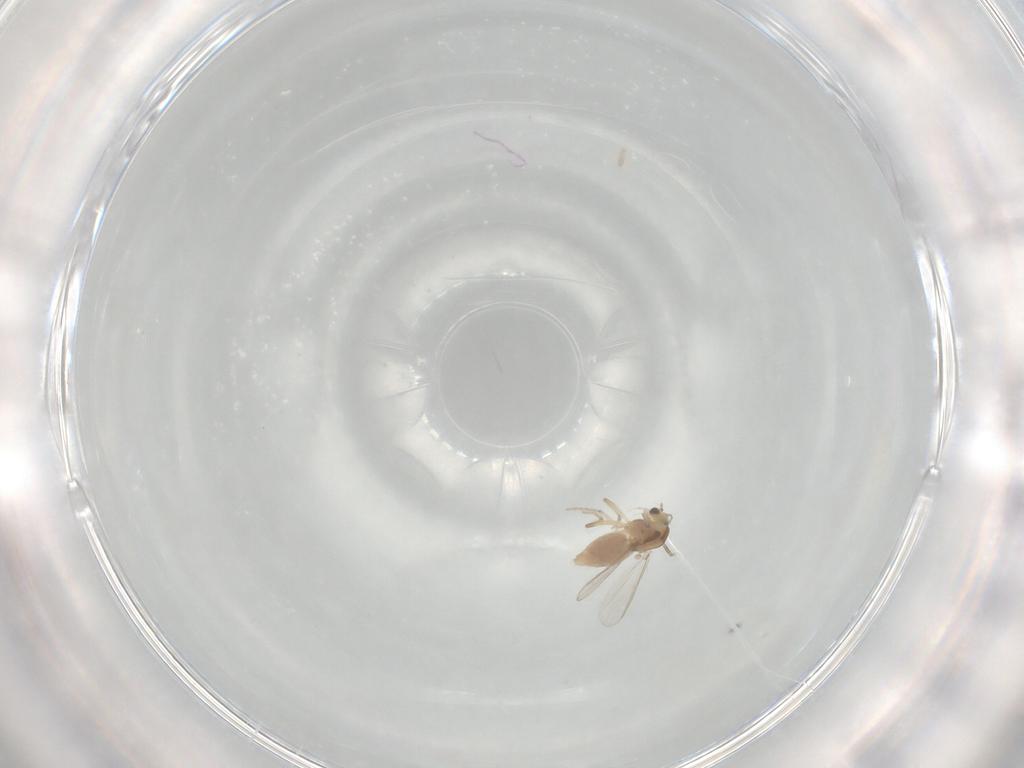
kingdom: Animalia
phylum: Arthropoda
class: Insecta
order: Diptera
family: Chironomidae
